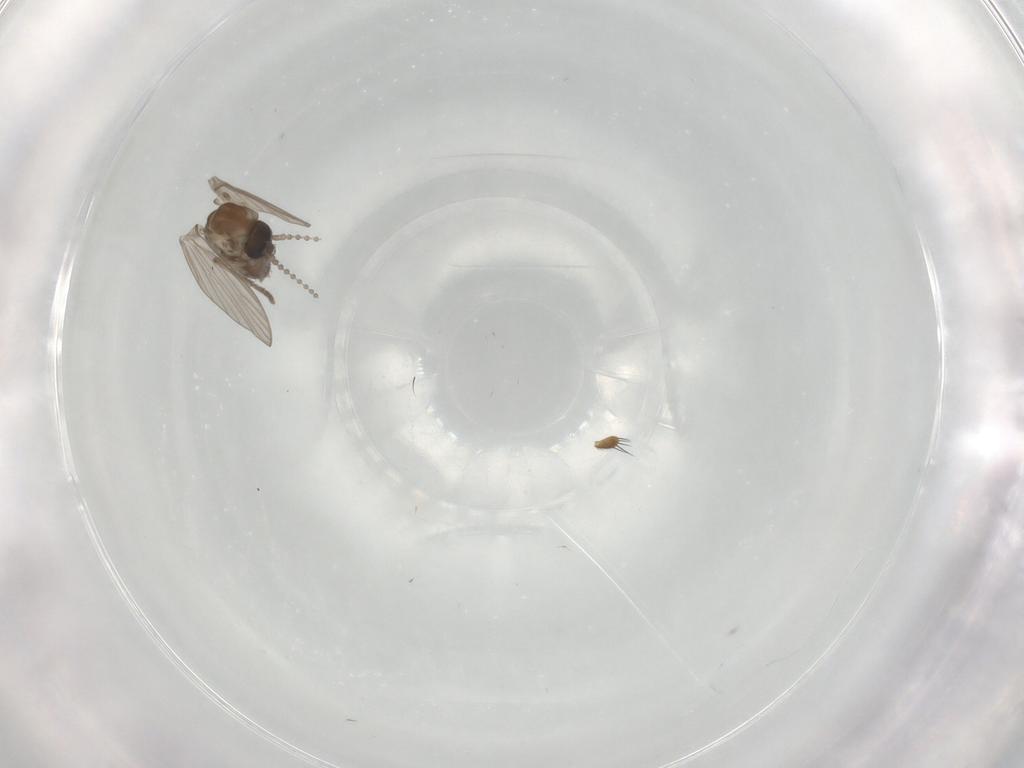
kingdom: Animalia
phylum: Arthropoda
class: Insecta
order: Diptera
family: Psychodidae
